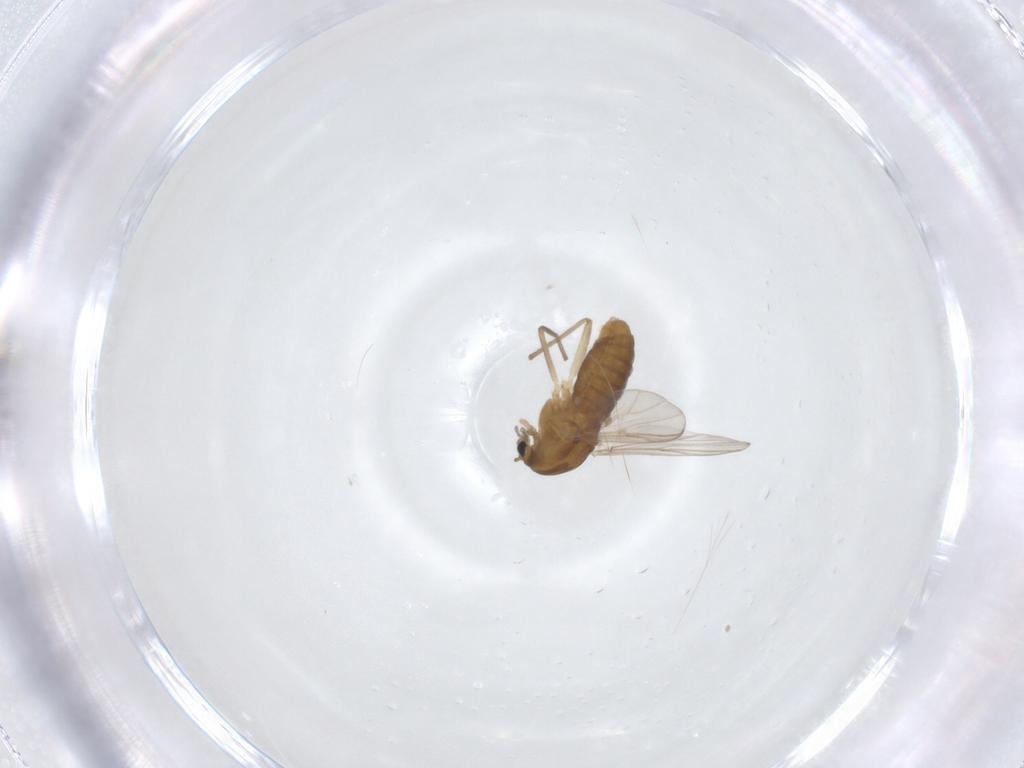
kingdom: Animalia
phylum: Arthropoda
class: Insecta
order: Diptera
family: Chironomidae
